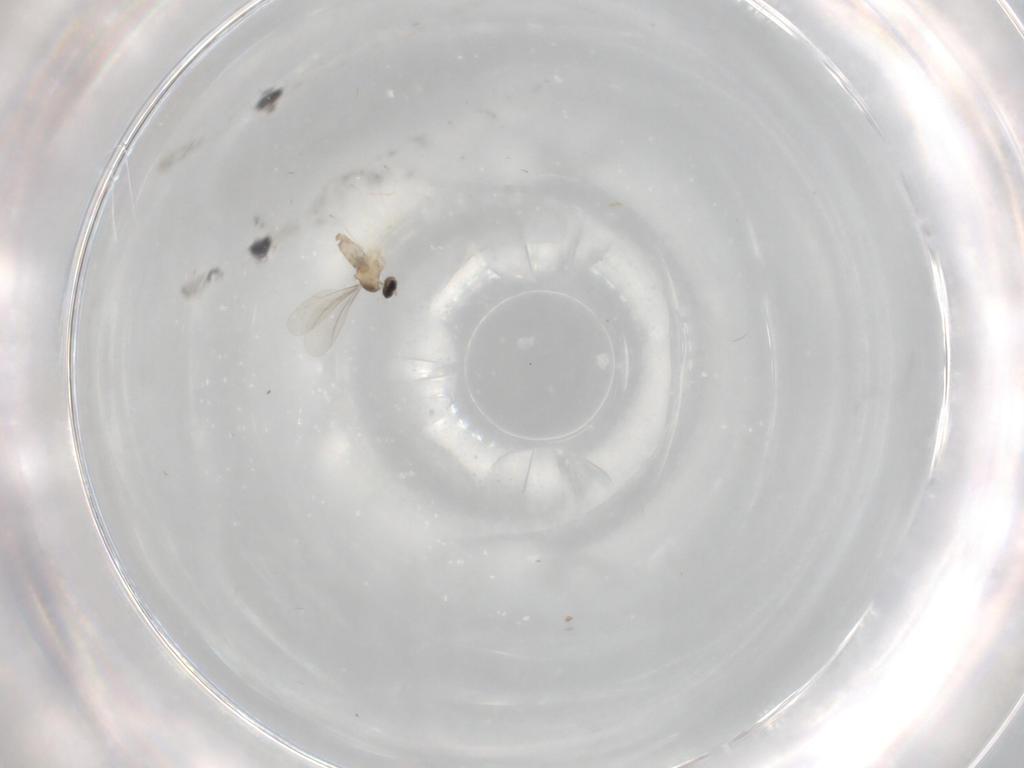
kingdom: Animalia
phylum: Arthropoda
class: Insecta
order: Diptera
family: Cecidomyiidae
